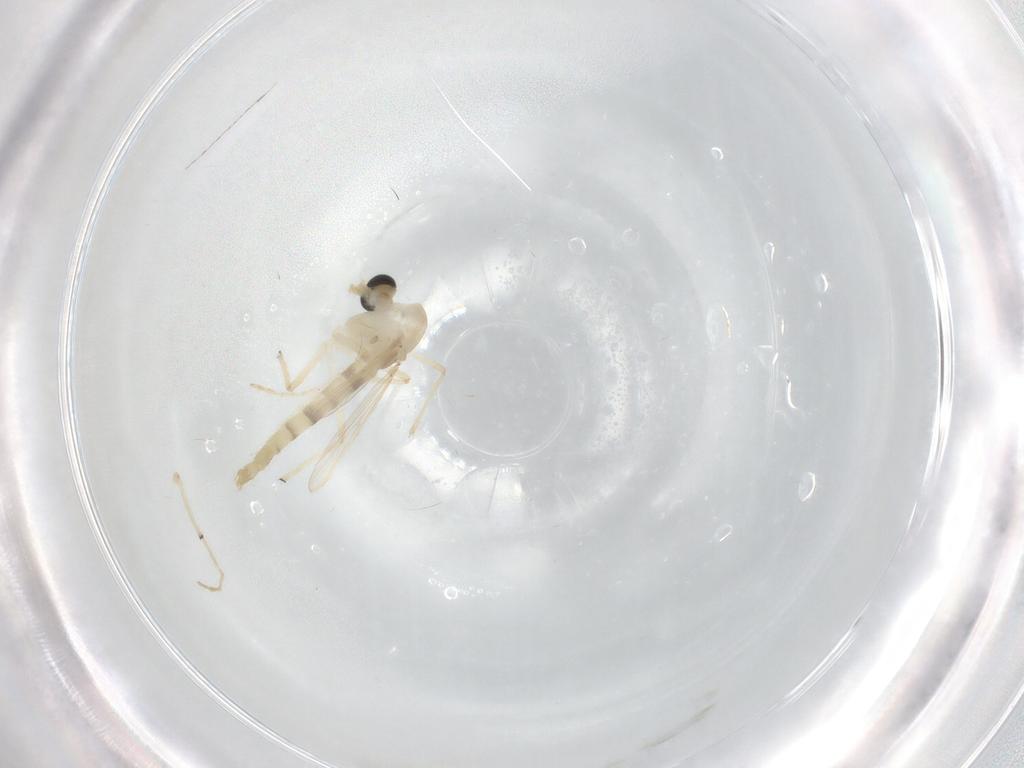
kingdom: Animalia
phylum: Arthropoda
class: Insecta
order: Diptera
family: Chironomidae
